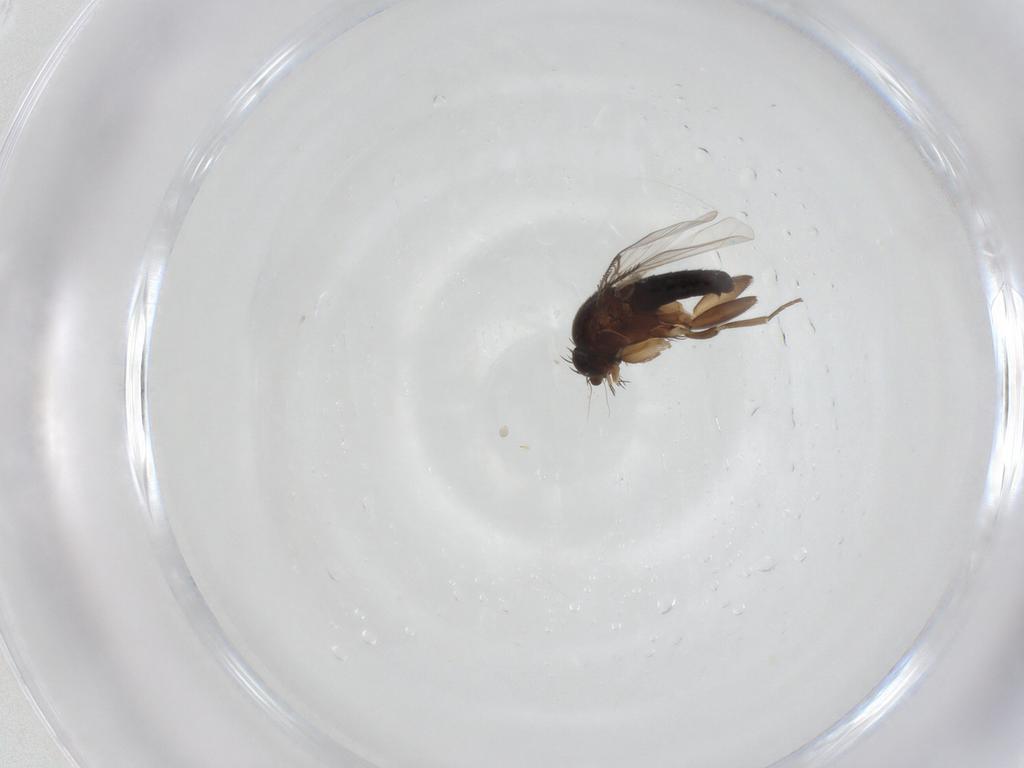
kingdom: Animalia
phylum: Arthropoda
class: Insecta
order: Diptera
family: Phoridae
